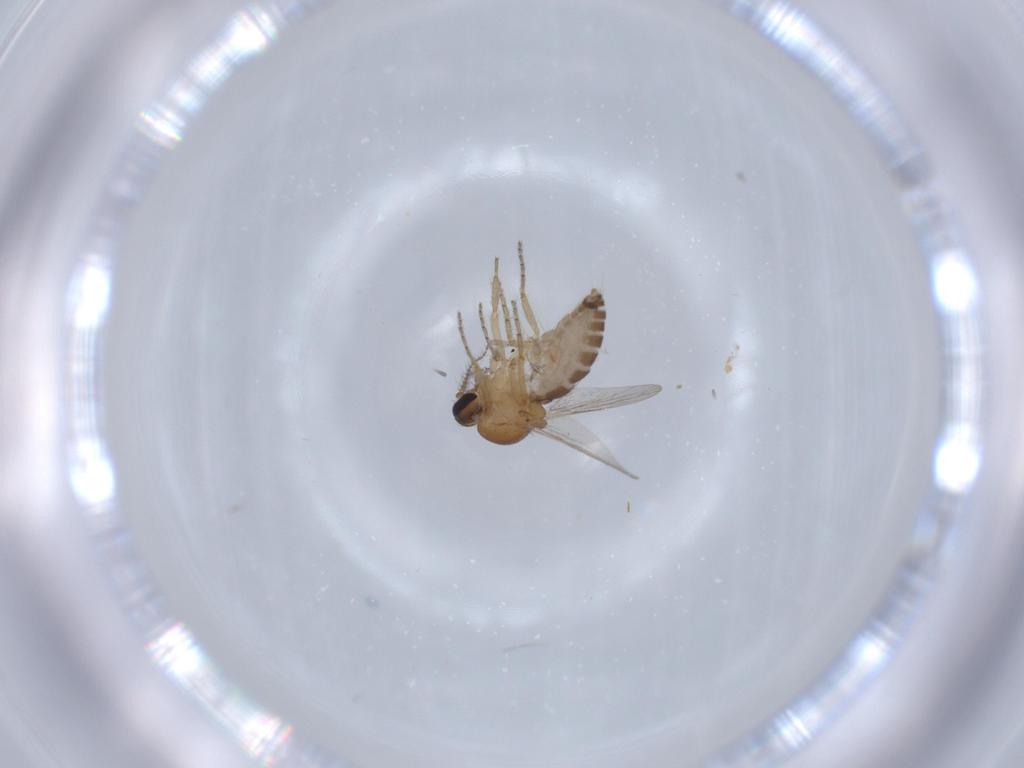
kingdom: Animalia
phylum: Arthropoda
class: Insecta
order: Diptera
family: Ceratopogonidae
